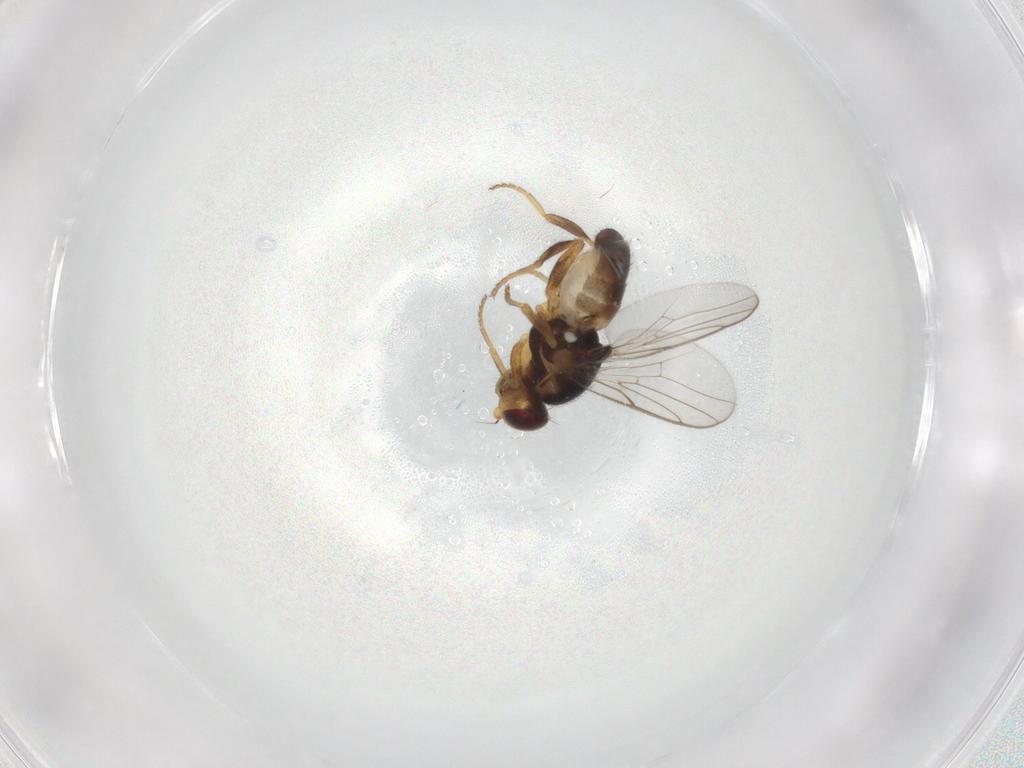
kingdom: Animalia
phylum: Arthropoda
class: Insecta
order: Diptera
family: Chloropidae
